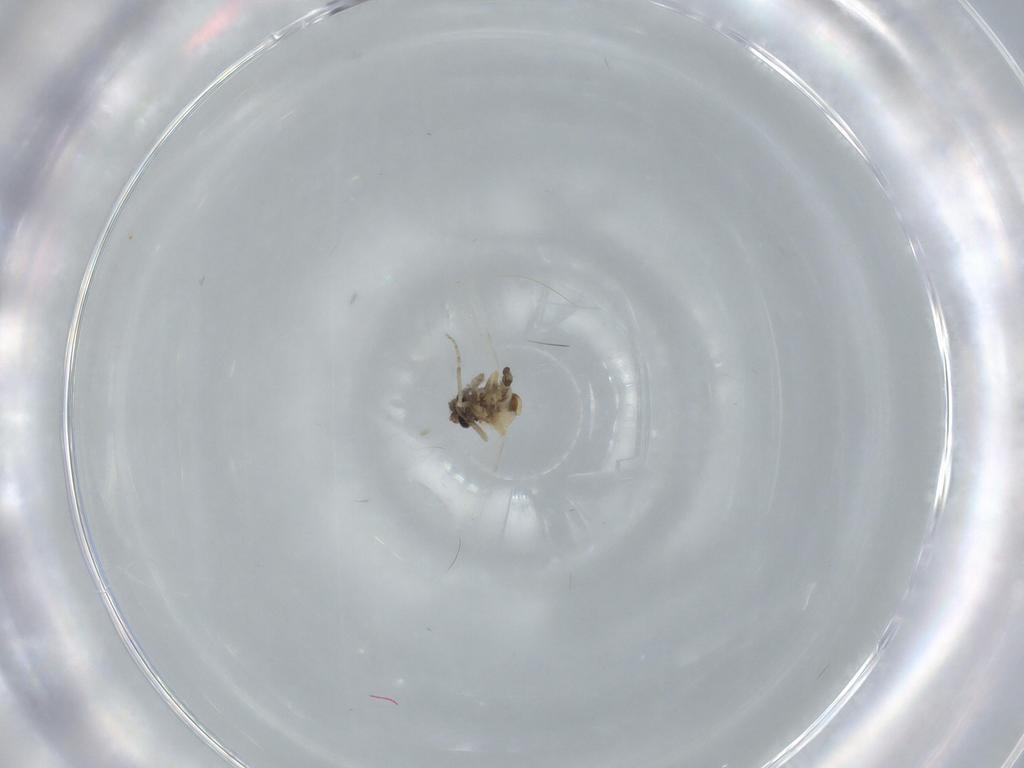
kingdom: Animalia
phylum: Arthropoda
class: Insecta
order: Diptera
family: Ceratopogonidae
